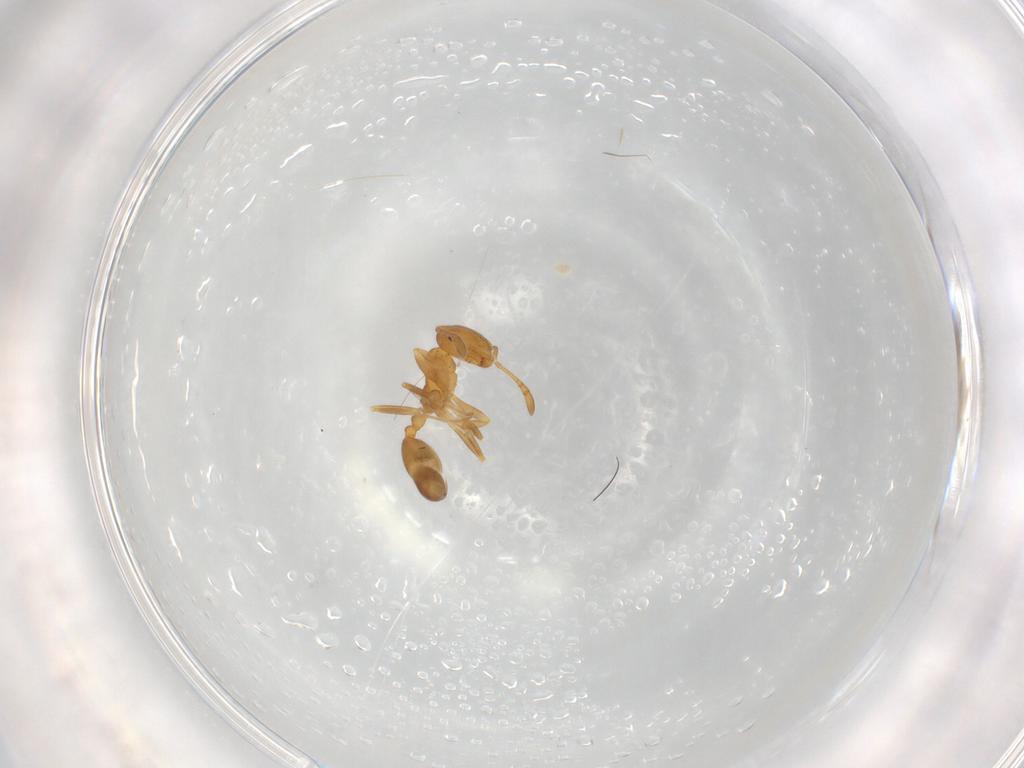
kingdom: Animalia
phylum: Arthropoda
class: Insecta
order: Hymenoptera
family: Formicidae
